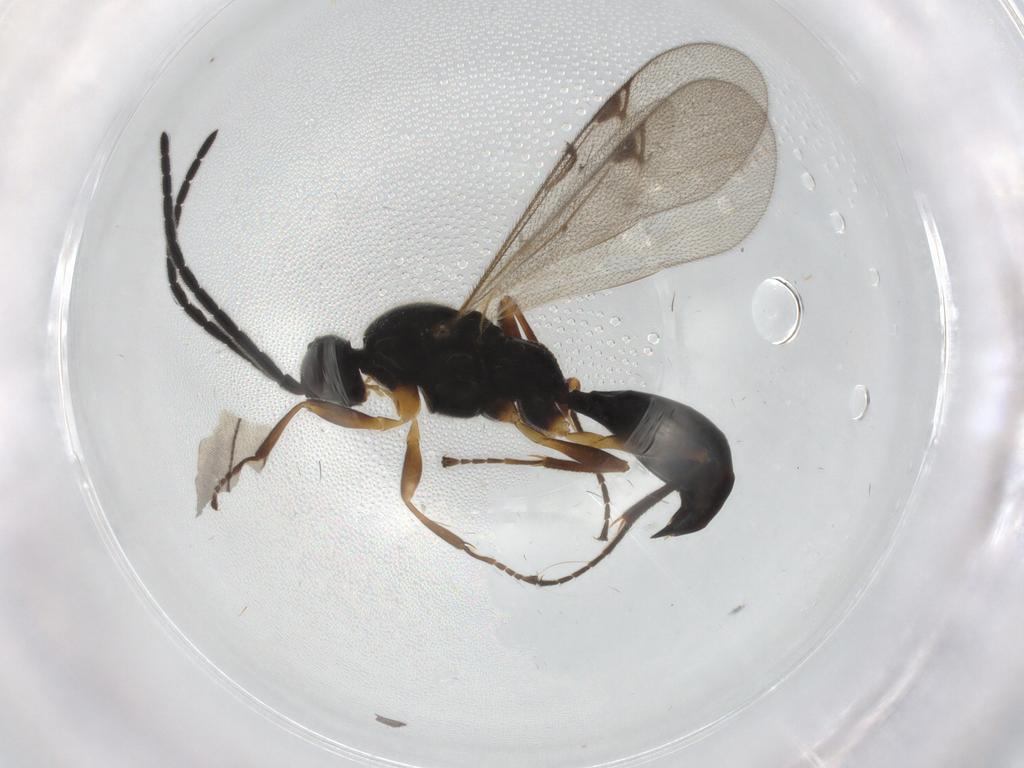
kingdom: Animalia
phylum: Arthropoda
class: Insecta
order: Hymenoptera
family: Proctotrupidae
